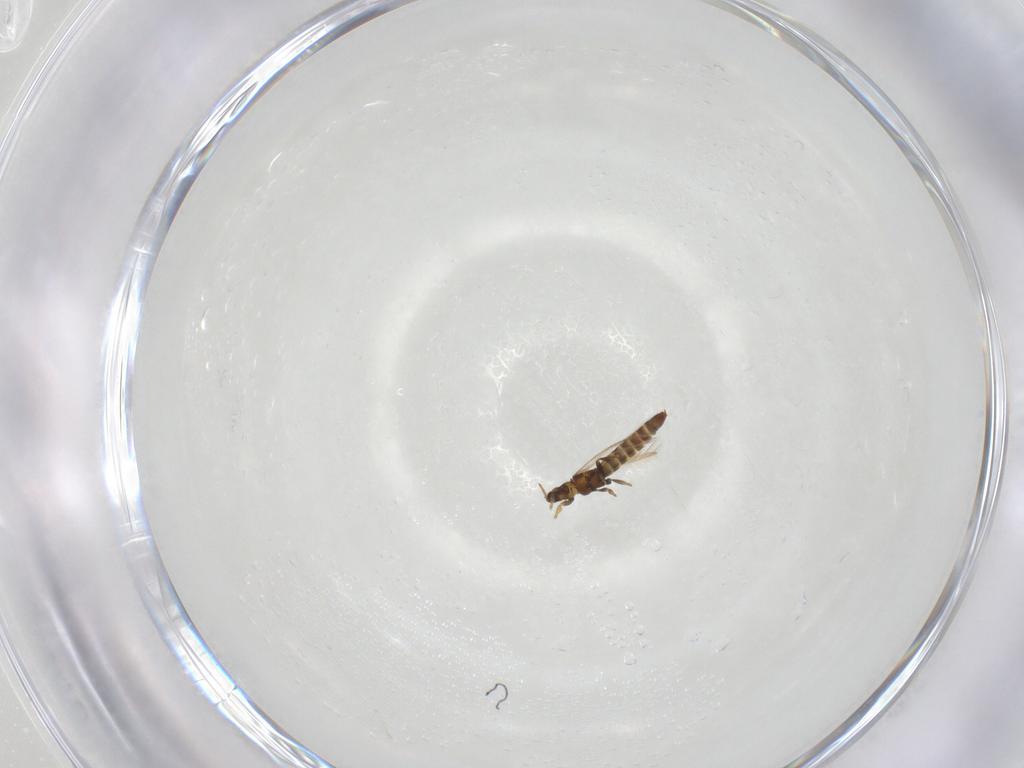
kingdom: Animalia
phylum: Arthropoda
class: Insecta
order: Thysanoptera
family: Thripidae
